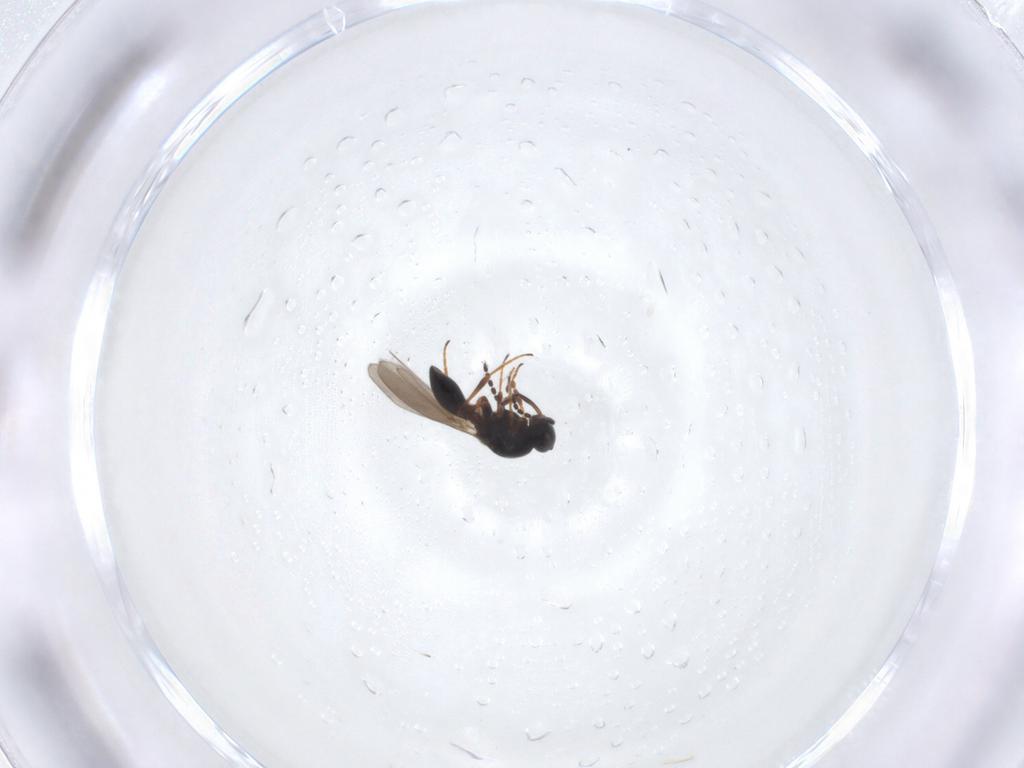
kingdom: Animalia
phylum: Arthropoda
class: Insecta
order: Hymenoptera
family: Platygastridae
